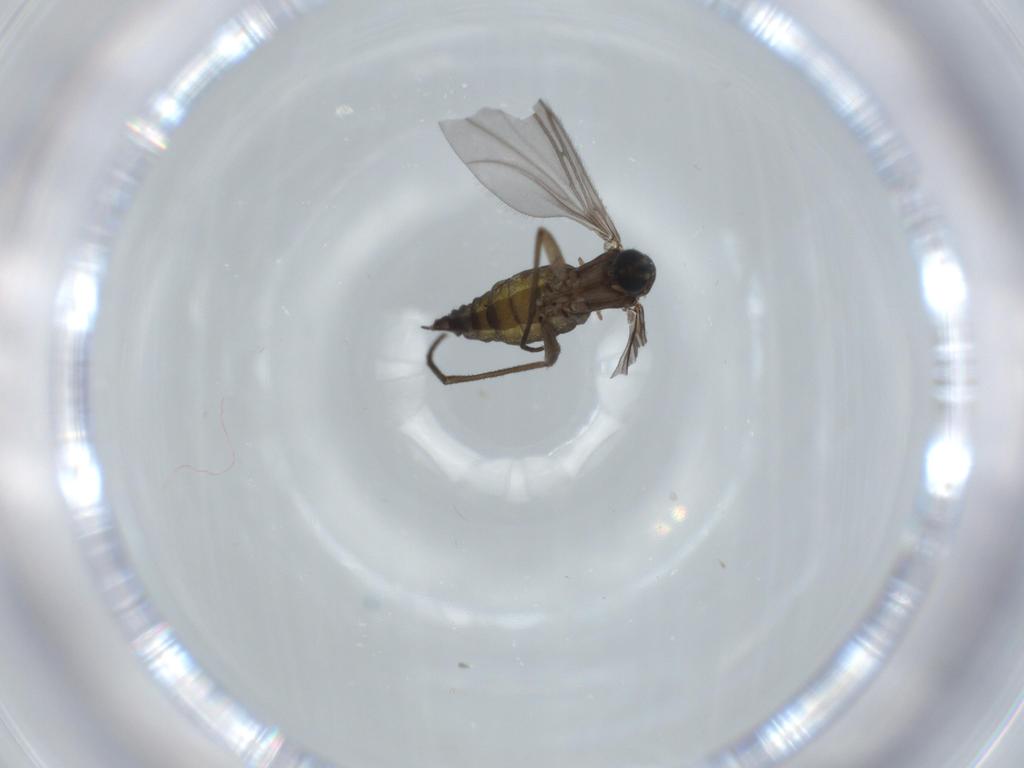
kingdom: Animalia
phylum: Arthropoda
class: Insecta
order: Diptera
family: Sciaridae
